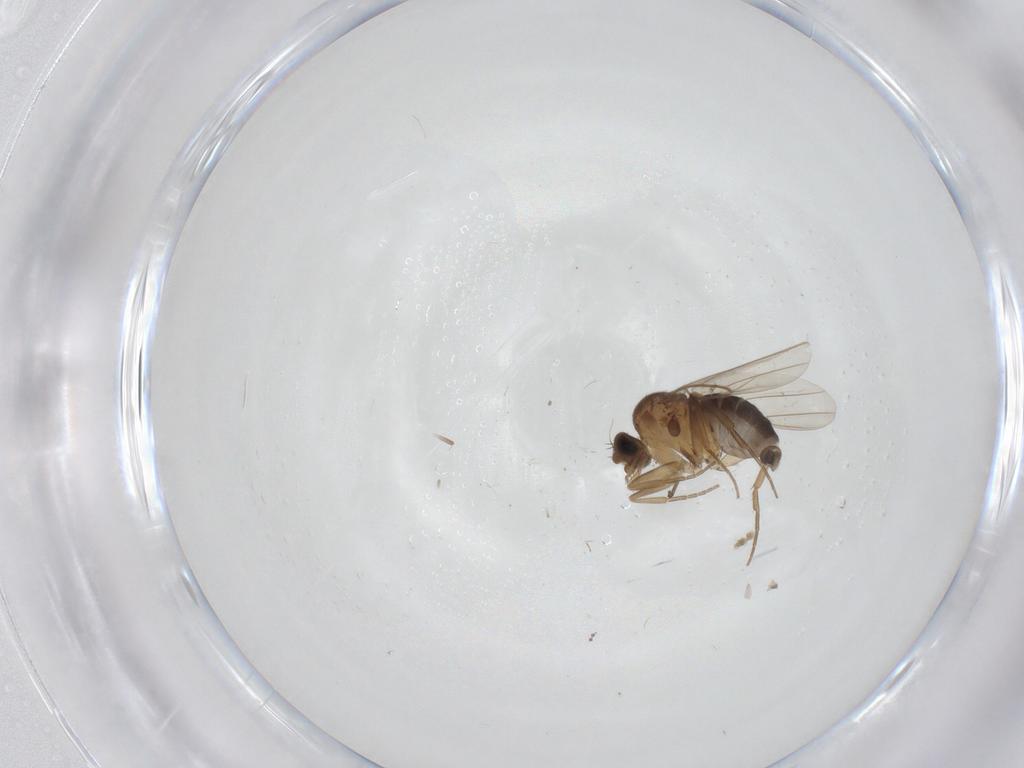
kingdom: Animalia
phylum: Arthropoda
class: Insecta
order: Diptera
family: Phoridae
